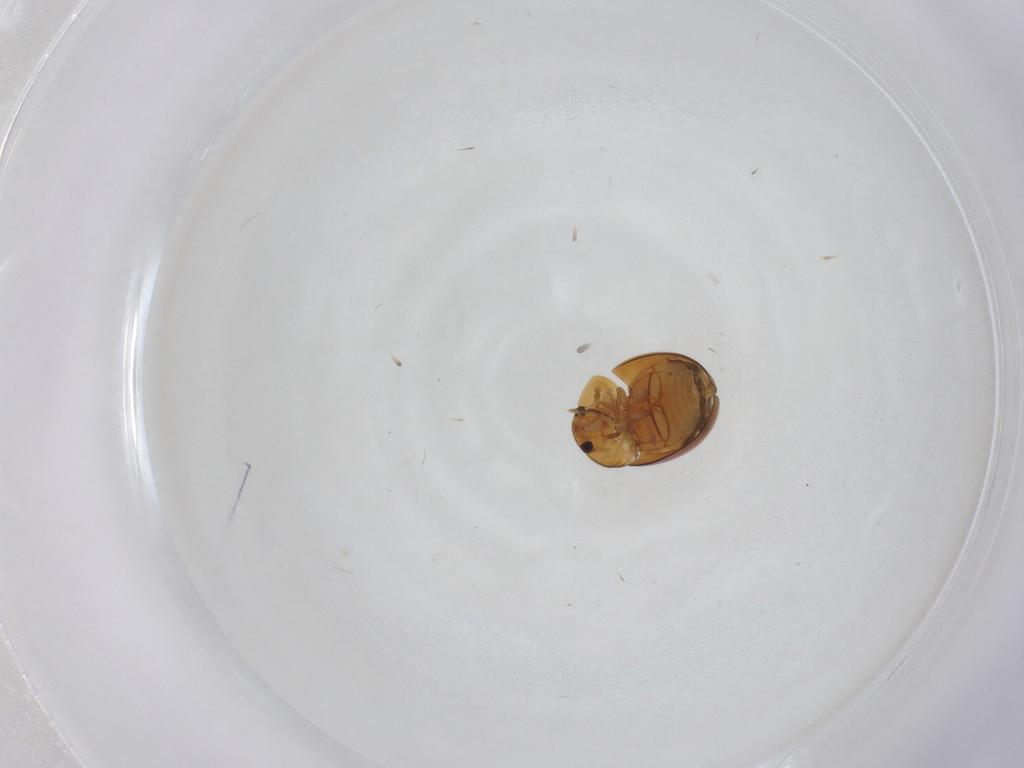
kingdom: Animalia
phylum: Arthropoda
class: Insecta
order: Coleoptera
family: Phalacridae
